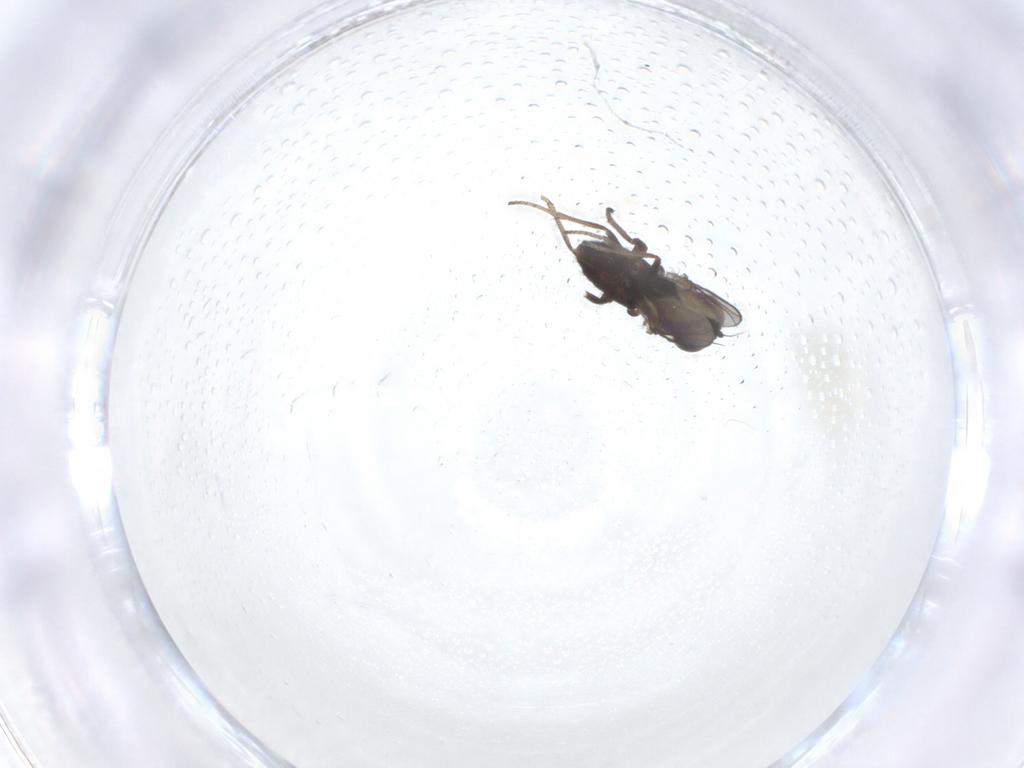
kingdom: Animalia
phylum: Arthropoda
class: Insecta
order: Diptera
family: Dolichopodidae
